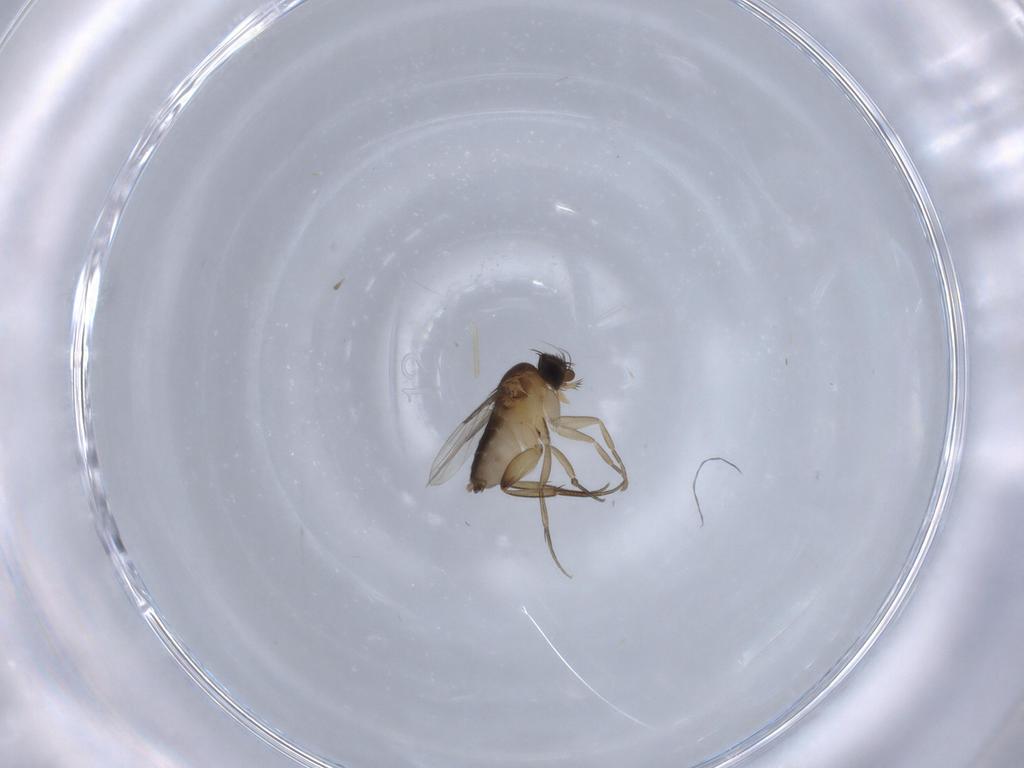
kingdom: Animalia
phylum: Arthropoda
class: Insecta
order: Diptera
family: Phoridae
